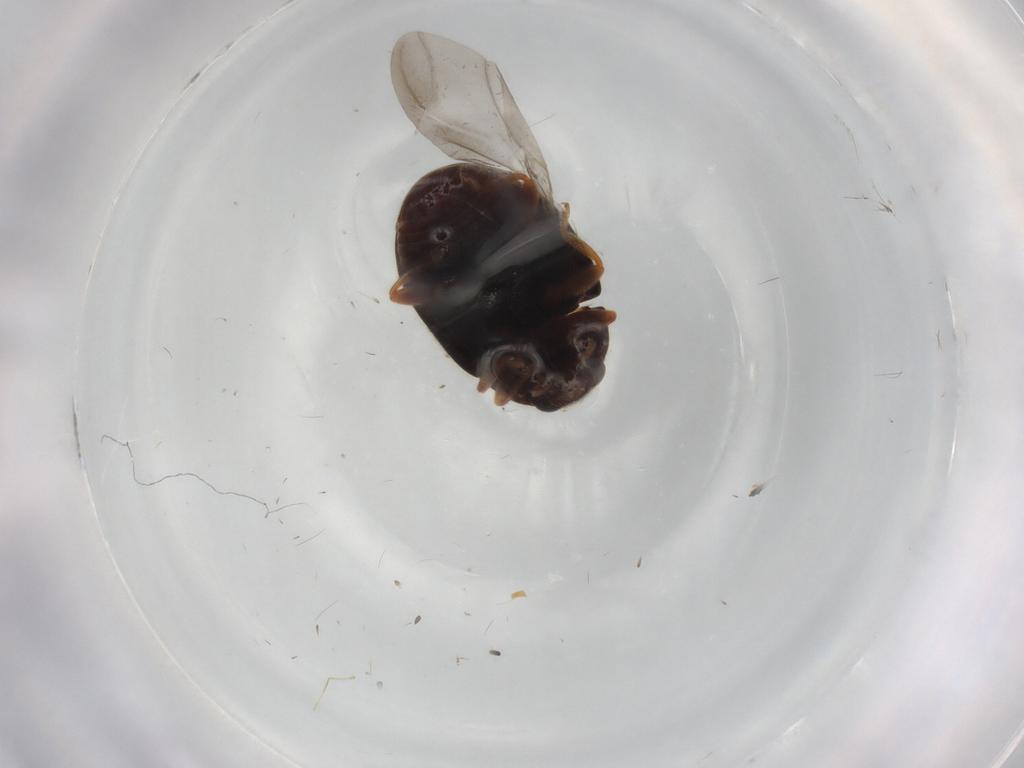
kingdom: Animalia
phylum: Arthropoda
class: Insecta
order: Coleoptera
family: Coccinellidae
